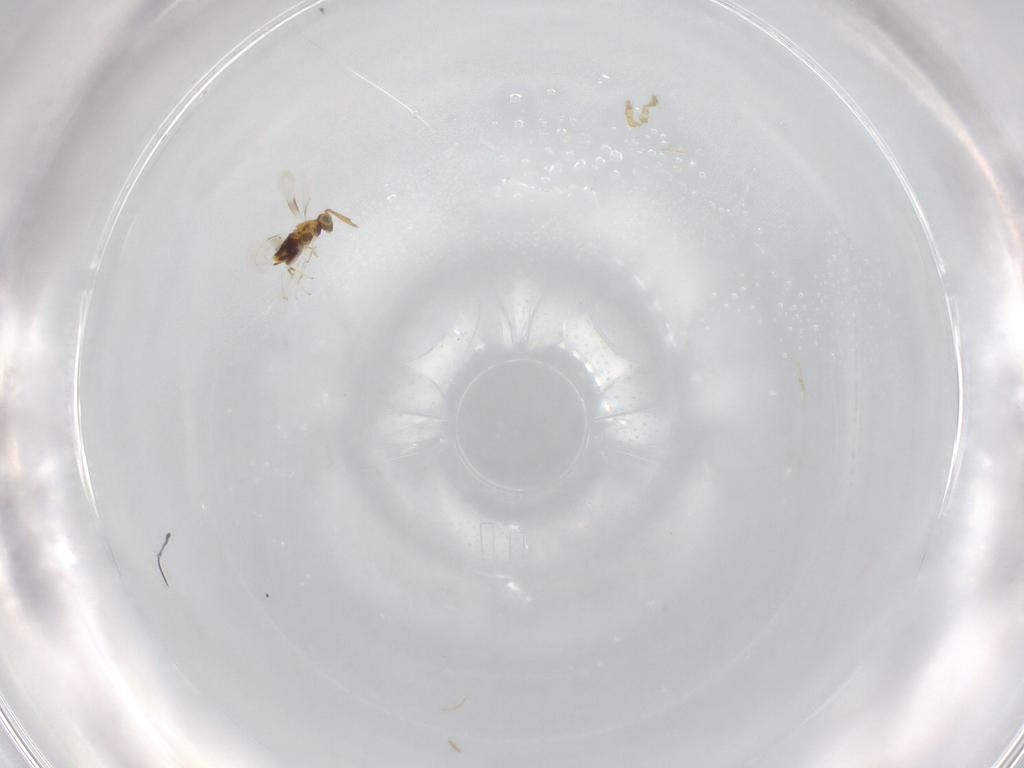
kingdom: Animalia
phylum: Arthropoda
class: Insecta
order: Hymenoptera
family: Aphelinidae
